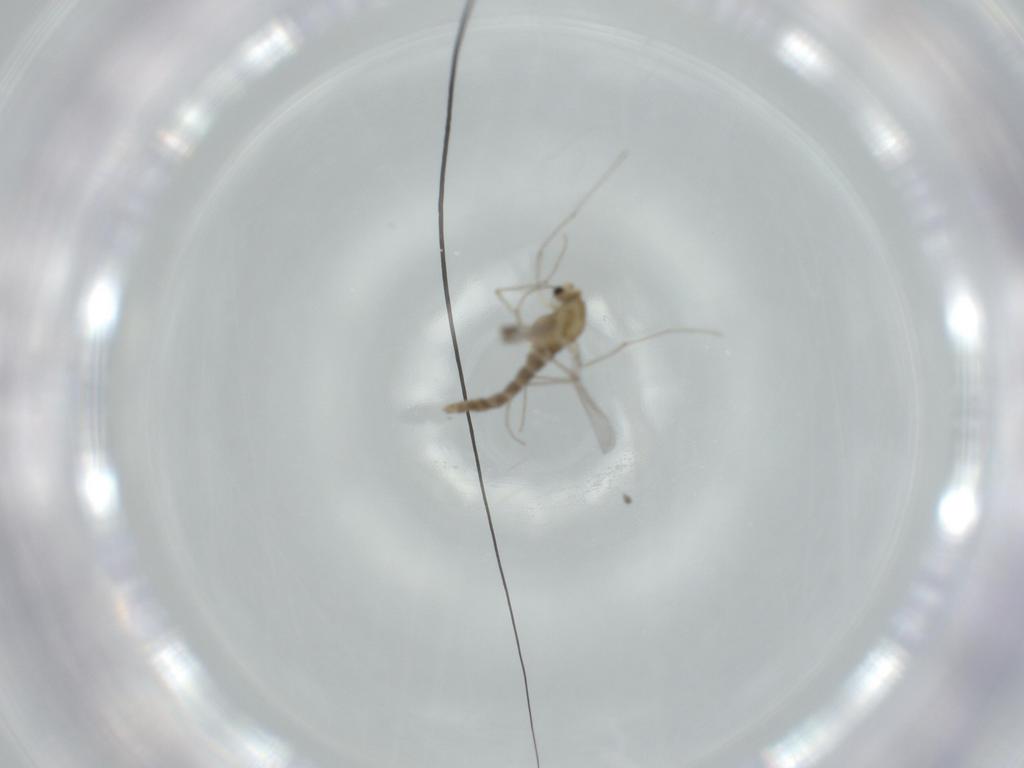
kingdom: Animalia
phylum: Arthropoda
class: Insecta
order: Diptera
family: Chironomidae
